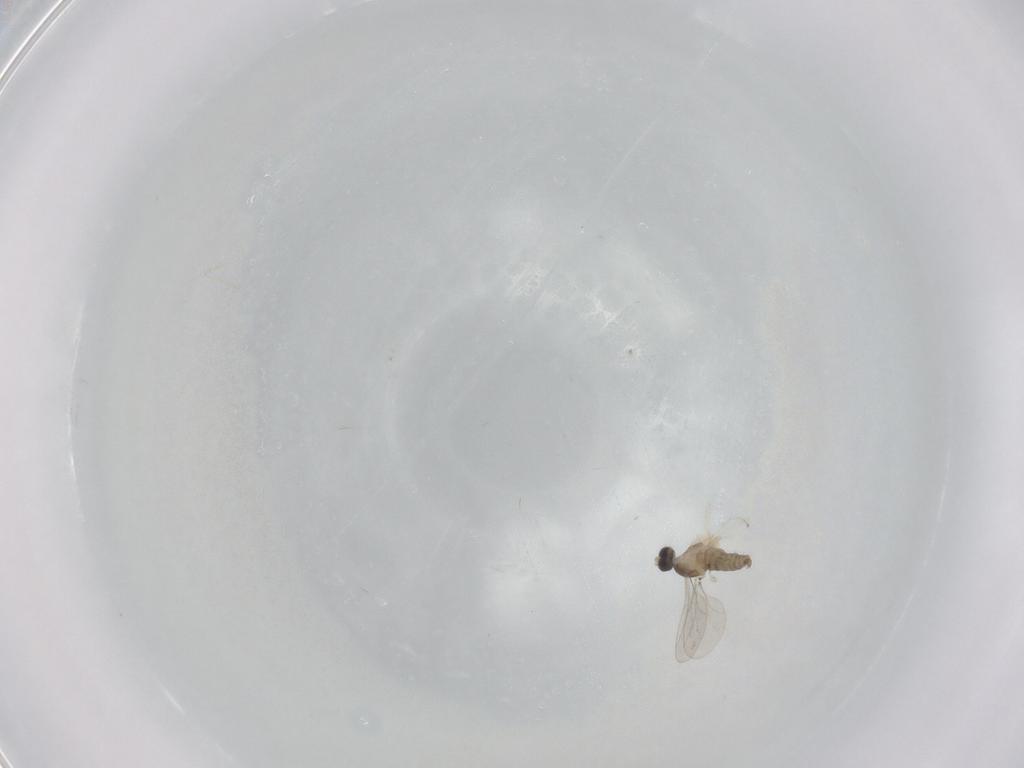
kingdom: Animalia
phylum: Arthropoda
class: Insecta
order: Diptera
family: Cecidomyiidae
